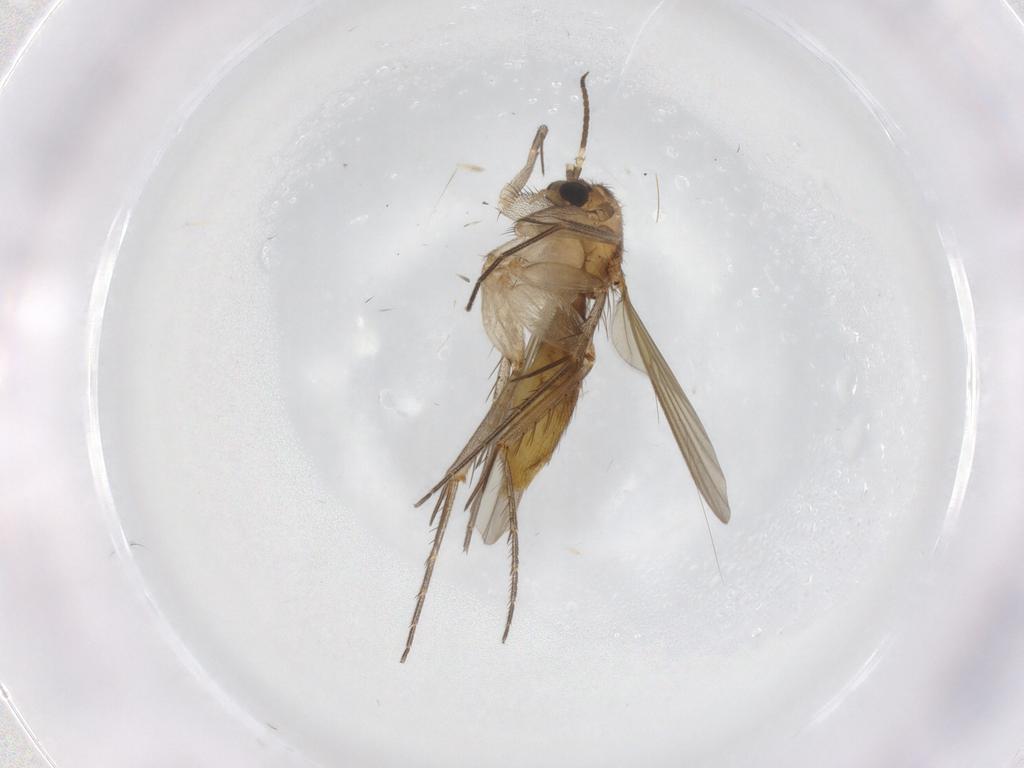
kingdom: Animalia
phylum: Arthropoda
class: Insecta
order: Diptera
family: Mycetophilidae
